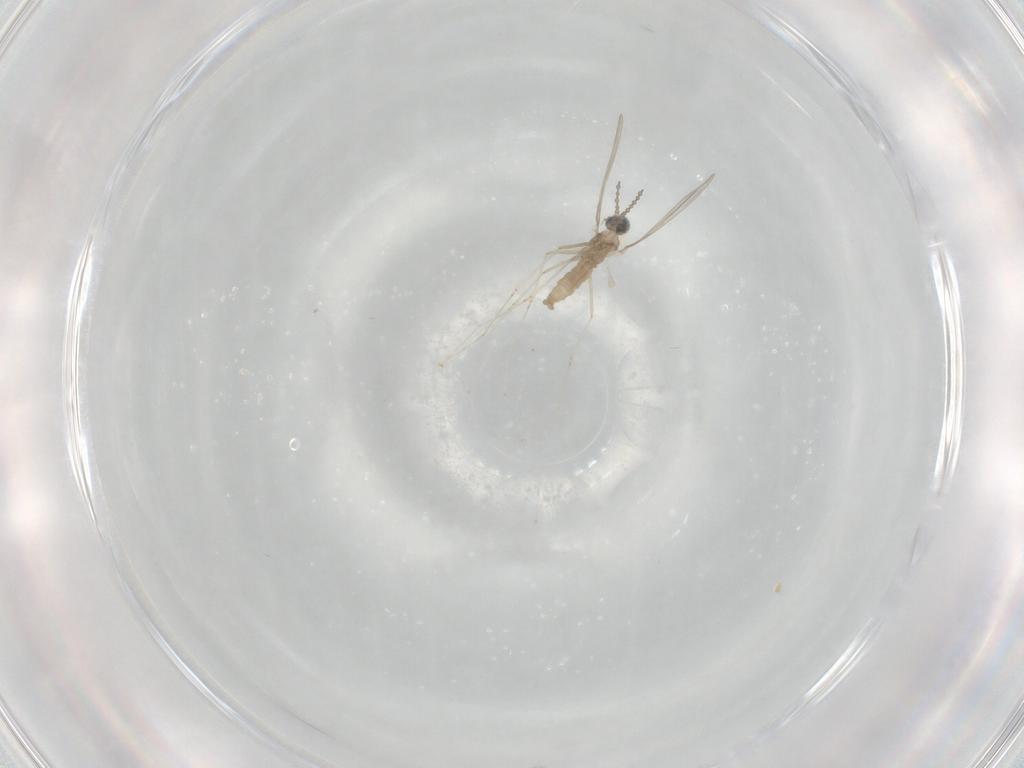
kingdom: Animalia
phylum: Arthropoda
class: Insecta
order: Diptera
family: Cecidomyiidae
